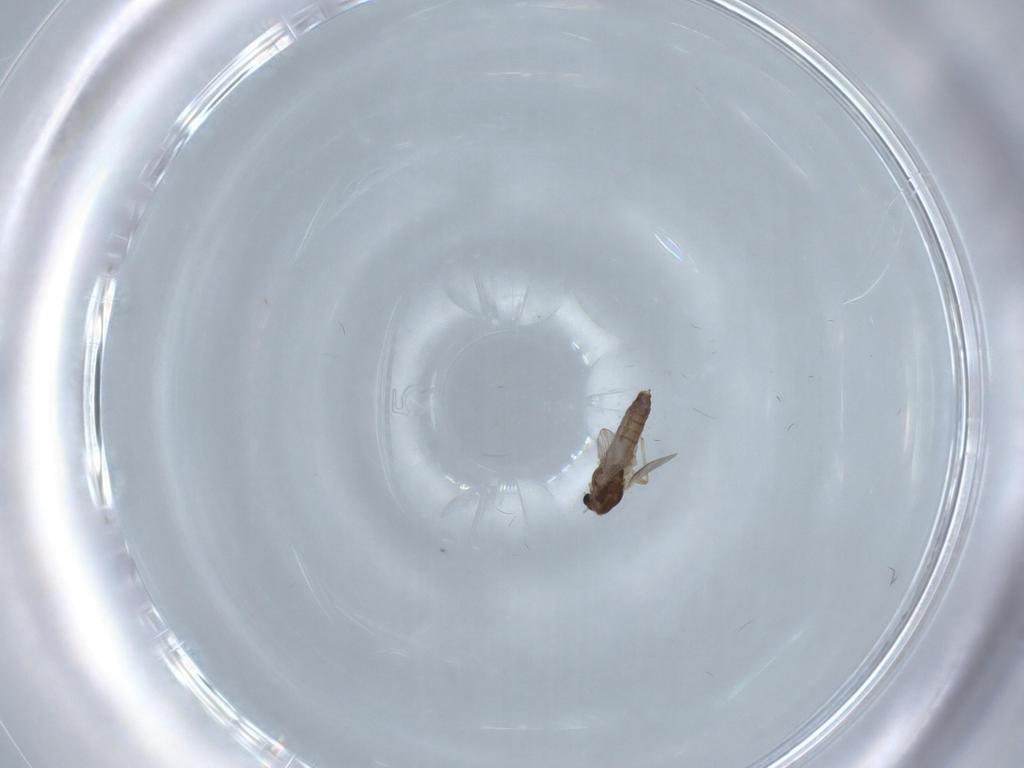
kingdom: Animalia
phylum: Arthropoda
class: Insecta
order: Diptera
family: Chironomidae
